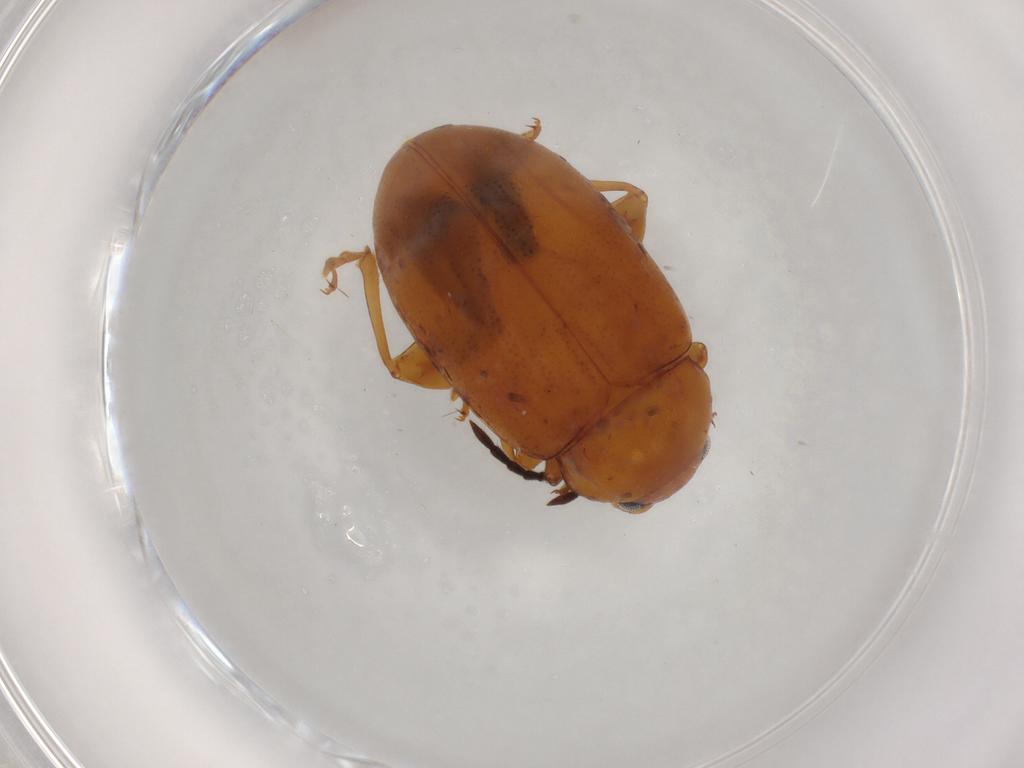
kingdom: Animalia
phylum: Arthropoda
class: Insecta
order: Coleoptera
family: Chrysomelidae
